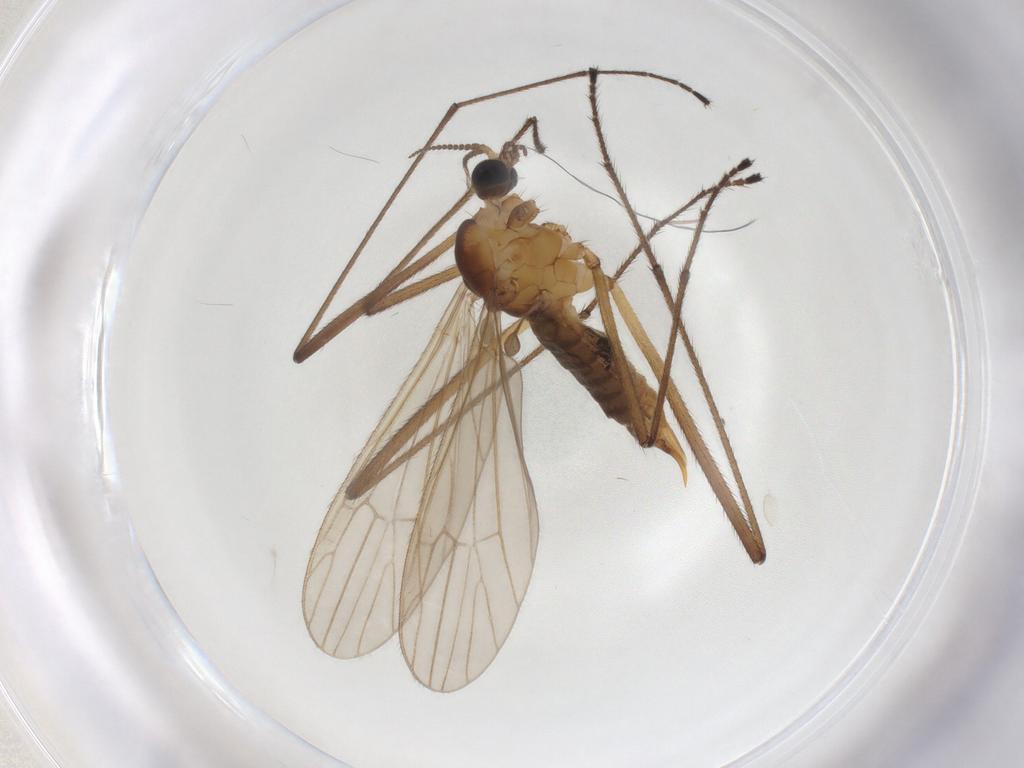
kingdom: Animalia
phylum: Arthropoda
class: Insecta
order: Diptera
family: Limoniidae
